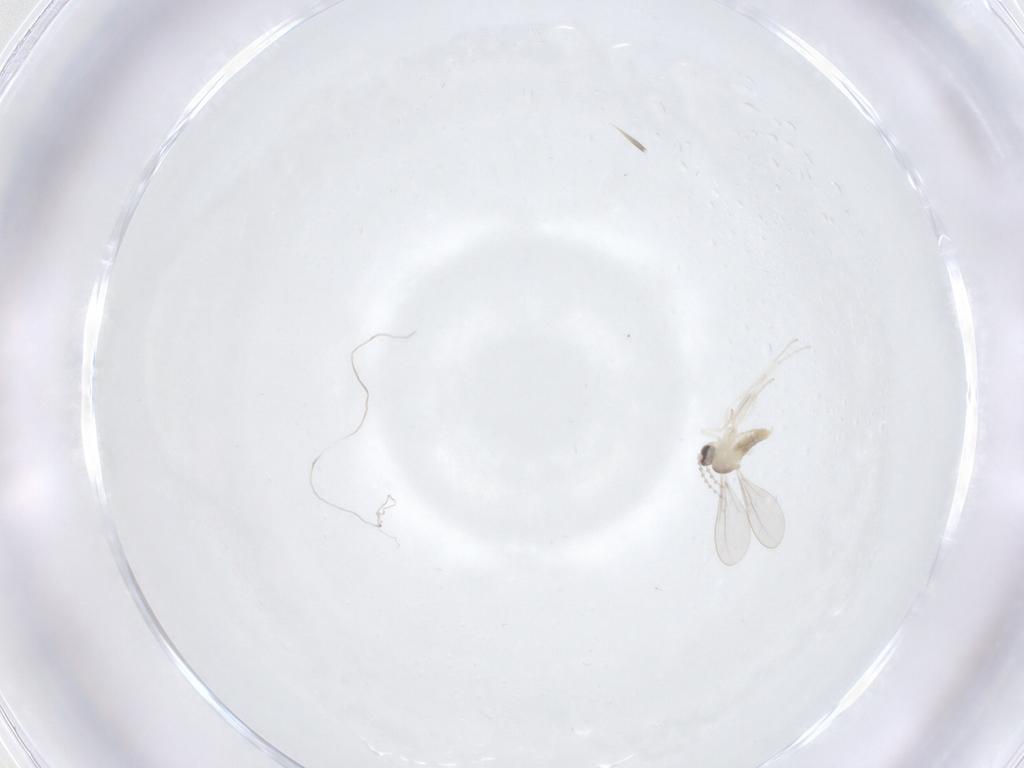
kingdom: Animalia
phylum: Arthropoda
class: Insecta
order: Diptera
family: Cecidomyiidae
